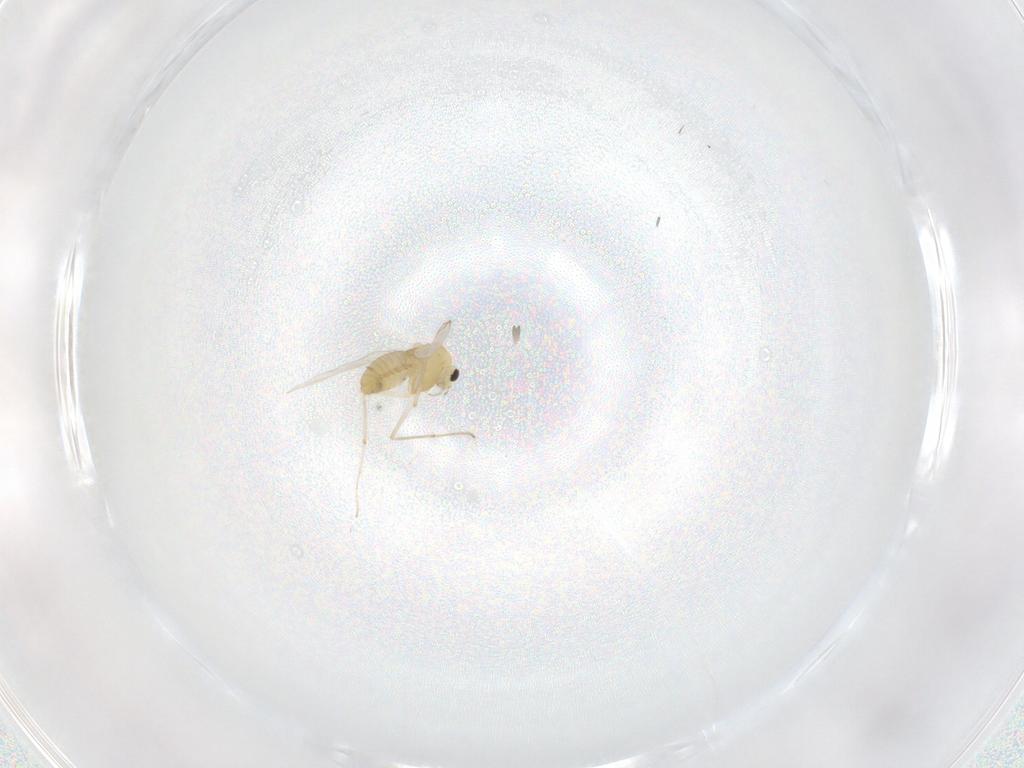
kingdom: Animalia
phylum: Arthropoda
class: Insecta
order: Diptera
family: Chironomidae
